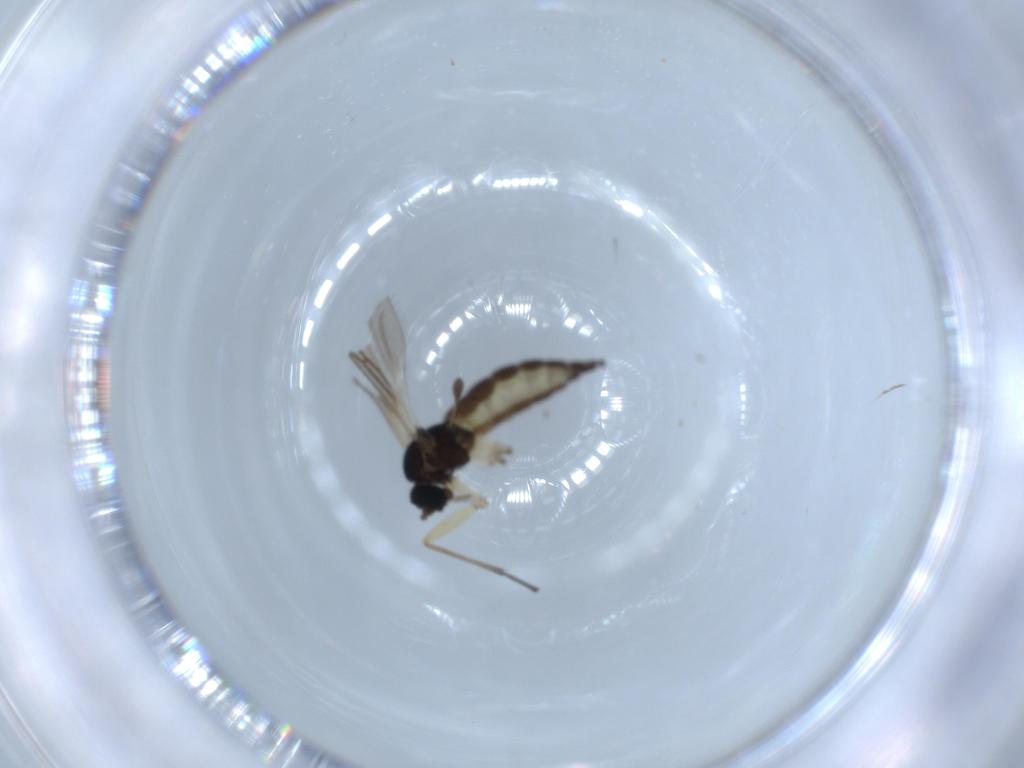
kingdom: Animalia
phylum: Arthropoda
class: Insecta
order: Diptera
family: Sciaridae
